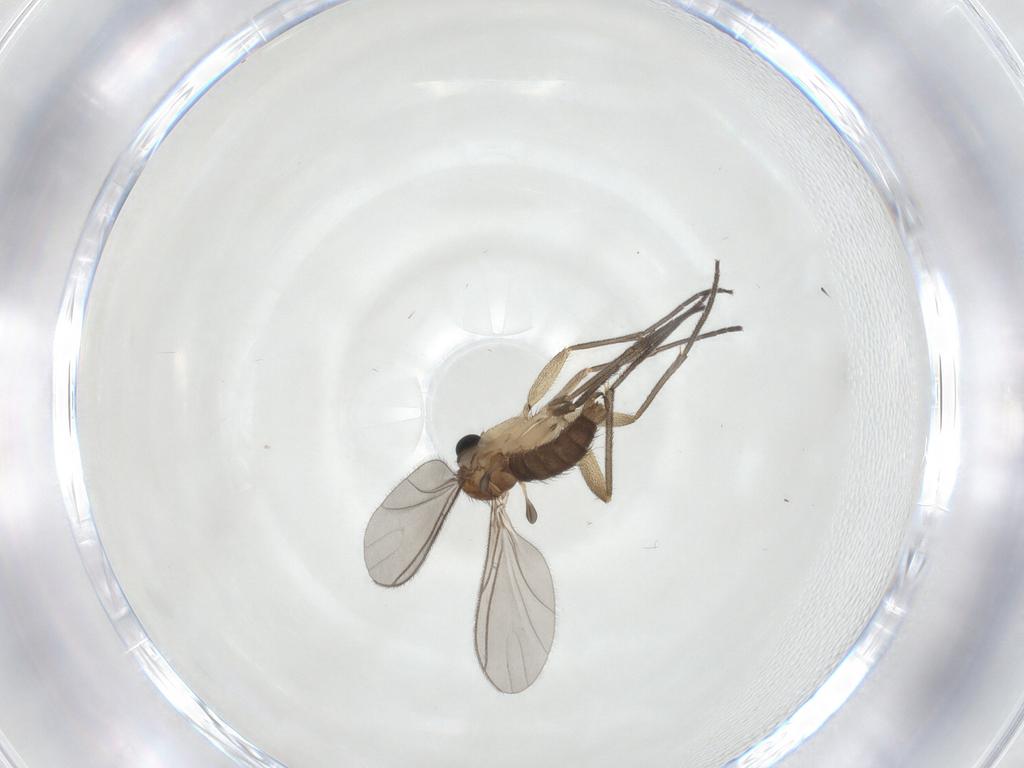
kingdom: Animalia
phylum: Arthropoda
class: Insecta
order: Diptera
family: Sciaridae
